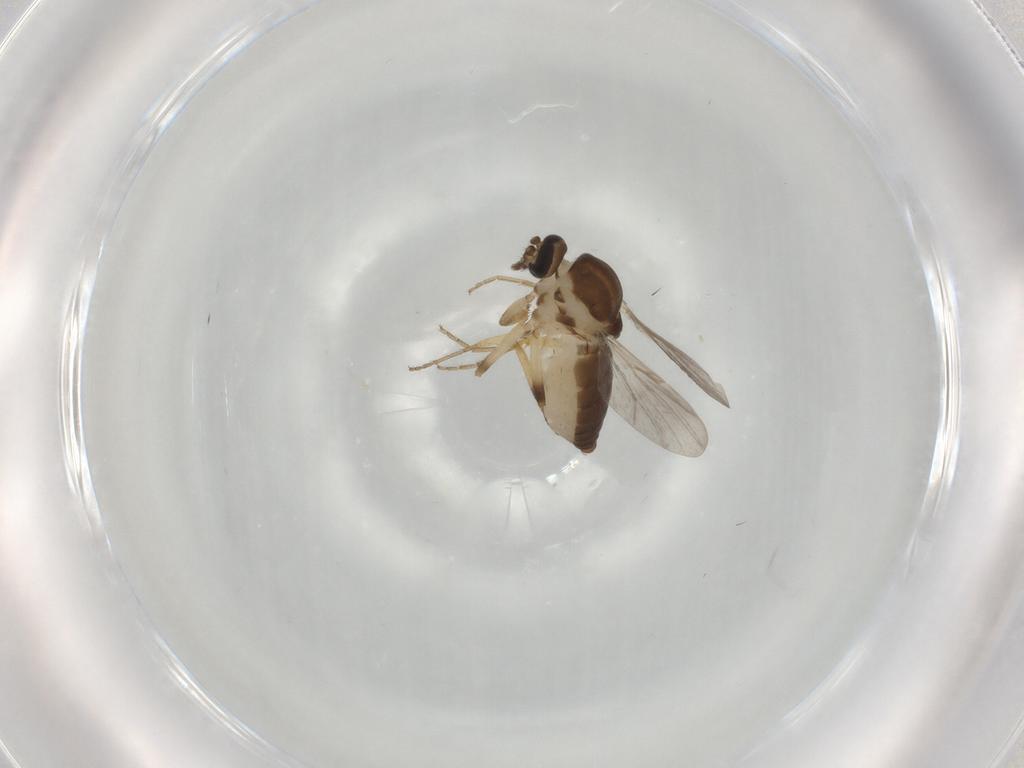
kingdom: Animalia
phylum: Arthropoda
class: Insecta
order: Diptera
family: Ceratopogonidae
